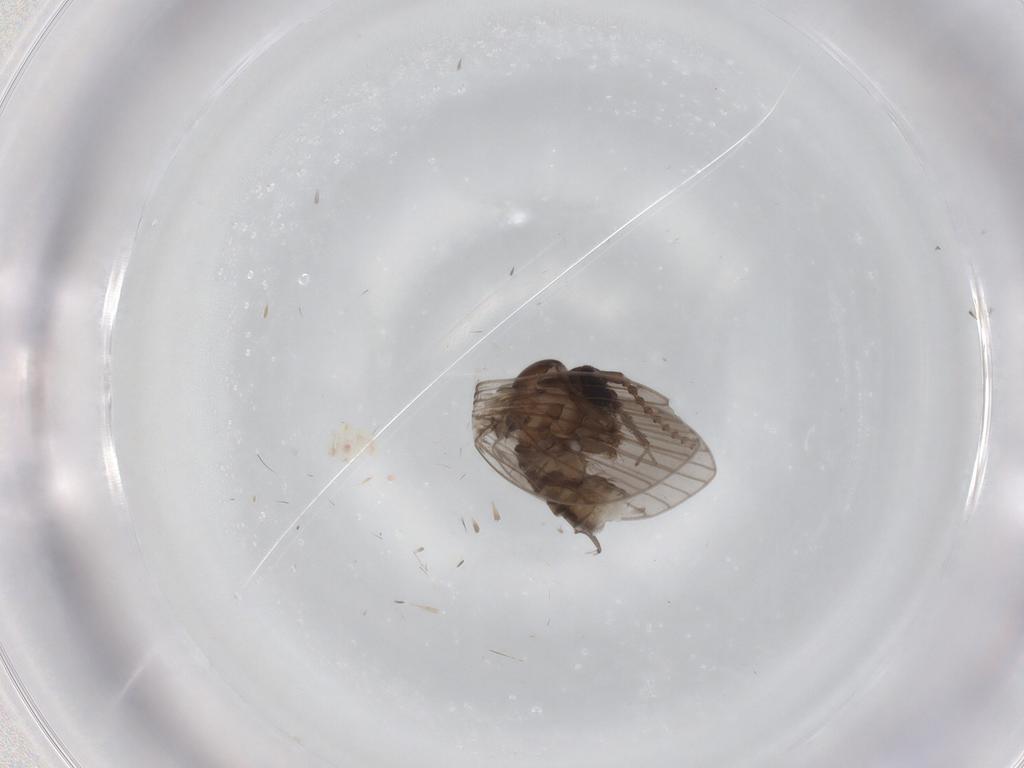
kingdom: Animalia
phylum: Arthropoda
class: Insecta
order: Diptera
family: Psychodidae
